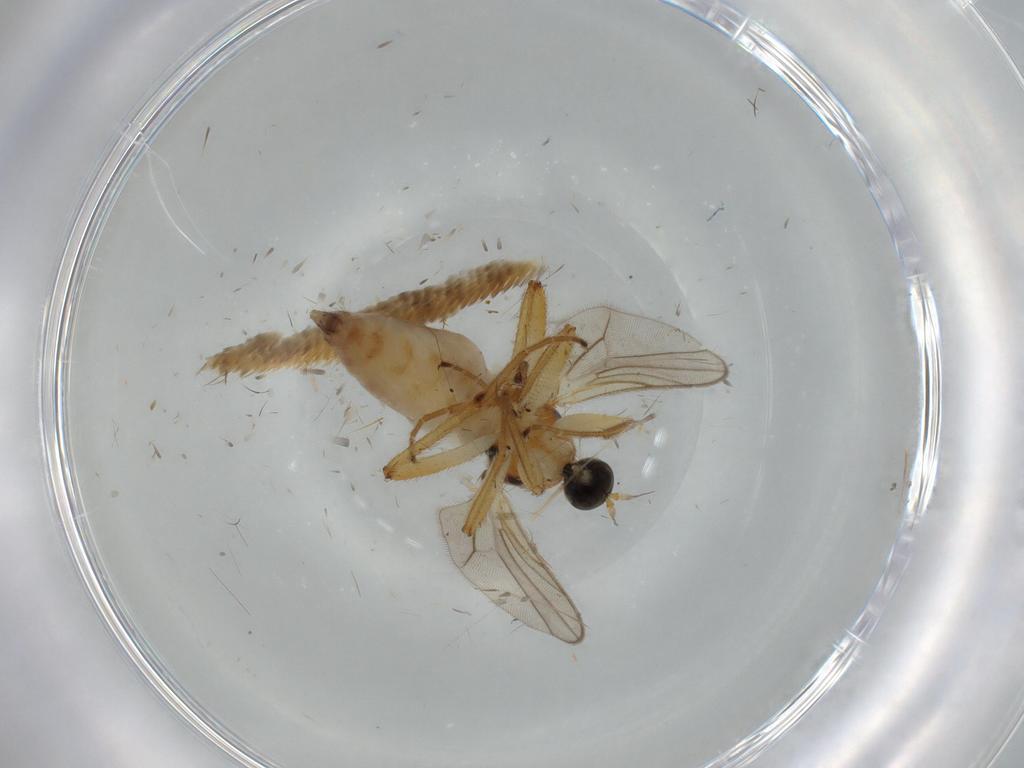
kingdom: Animalia
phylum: Arthropoda
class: Insecta
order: Diptera
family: Hybotidae
